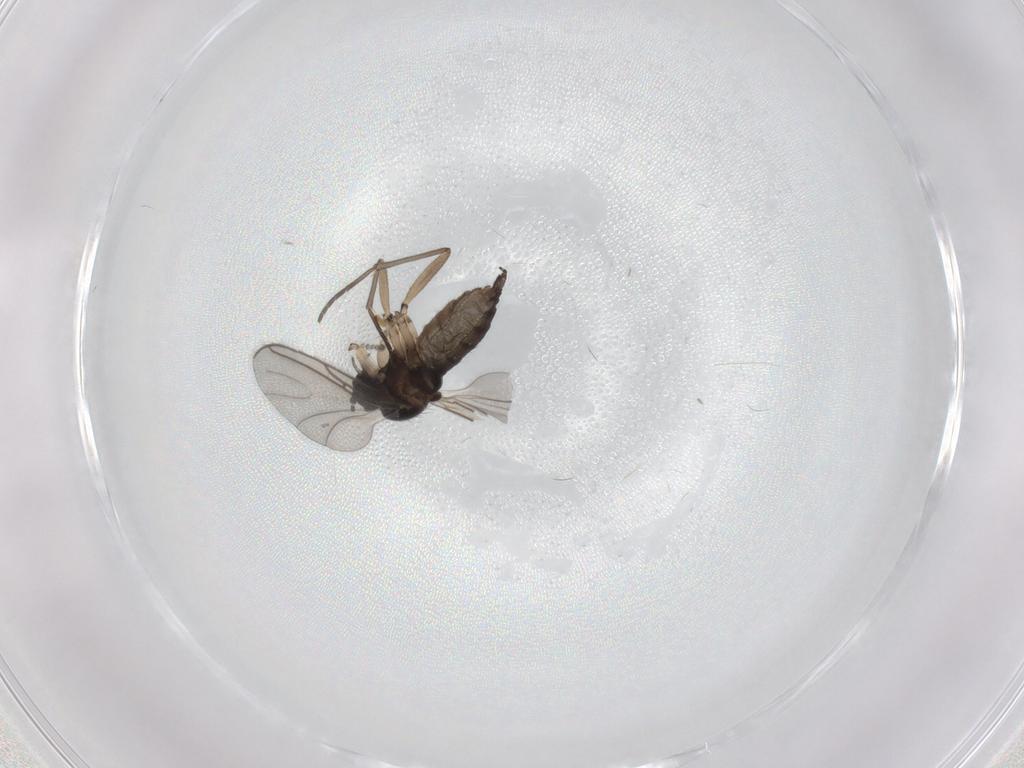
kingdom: Animalia
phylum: Arthropoda
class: Insecta
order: Diptera
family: Sciaridae
